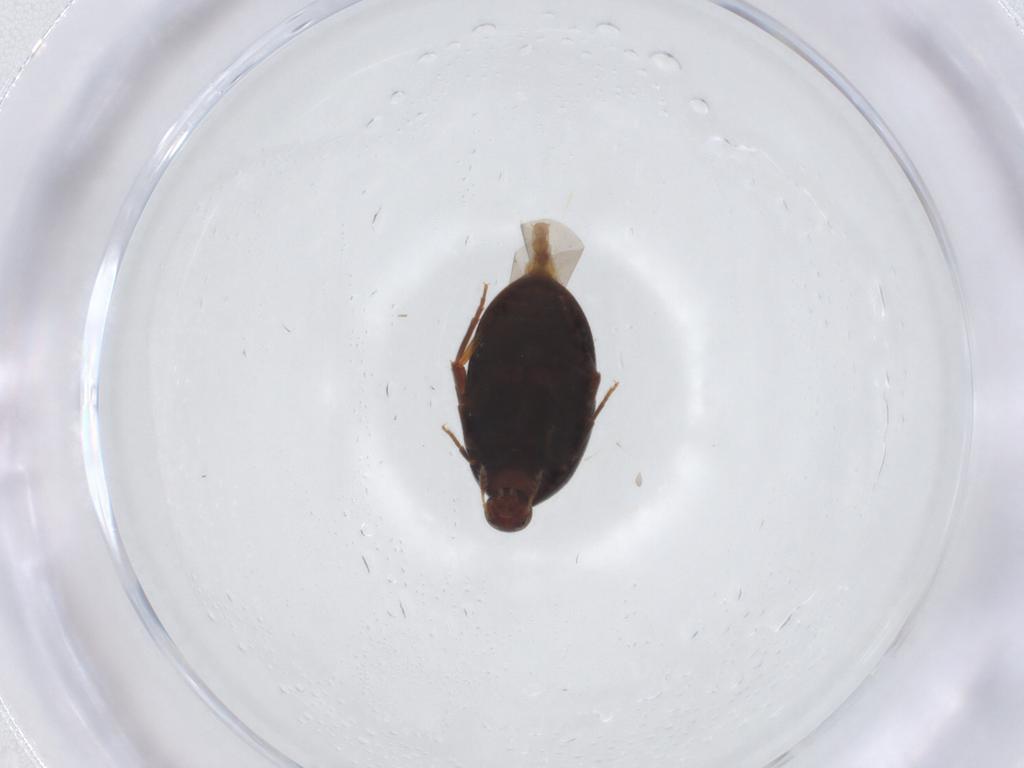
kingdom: Animalia
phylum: Arthropoda
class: Insecta
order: Coleoptera
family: Melandryidae
